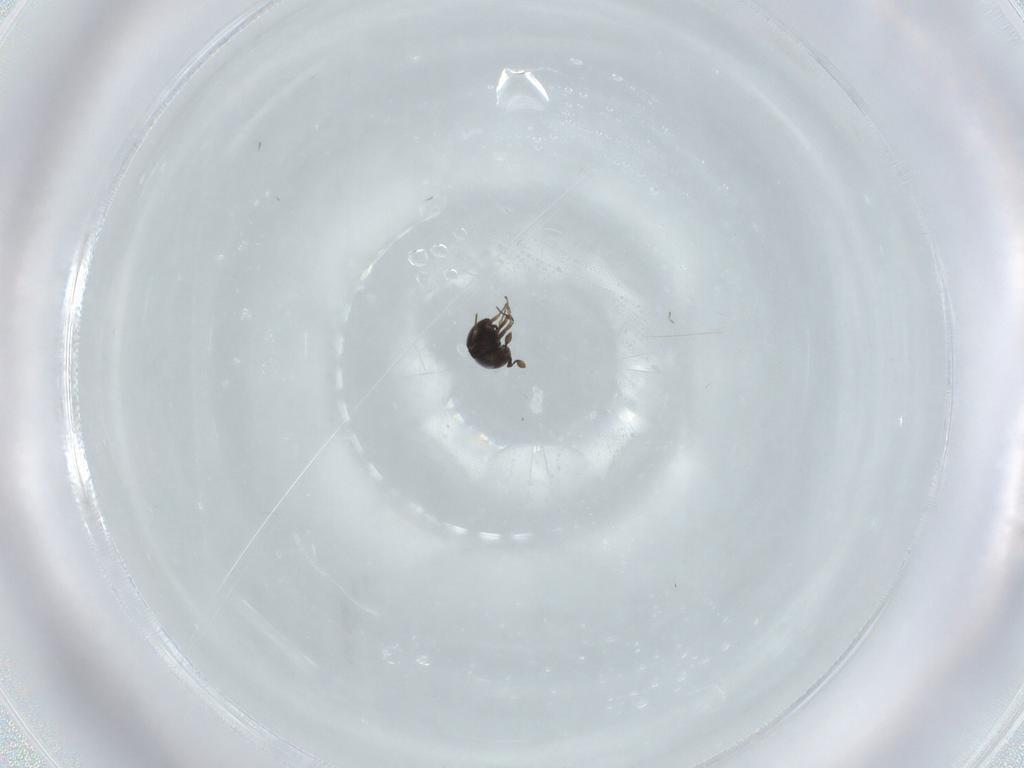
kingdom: Animalia
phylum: Arthropoda
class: Insecta
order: Hymenoptera
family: Scelionidae
